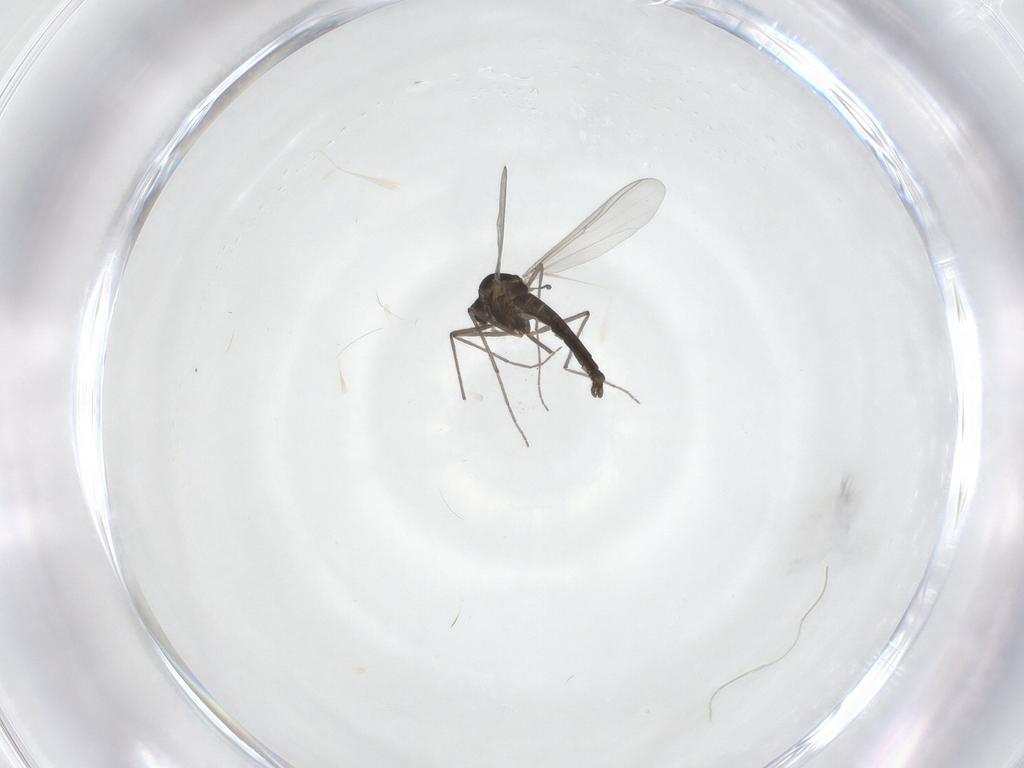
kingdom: Animalia
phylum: Arthropoda
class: Insecta
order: Diptera
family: Chironomidae
